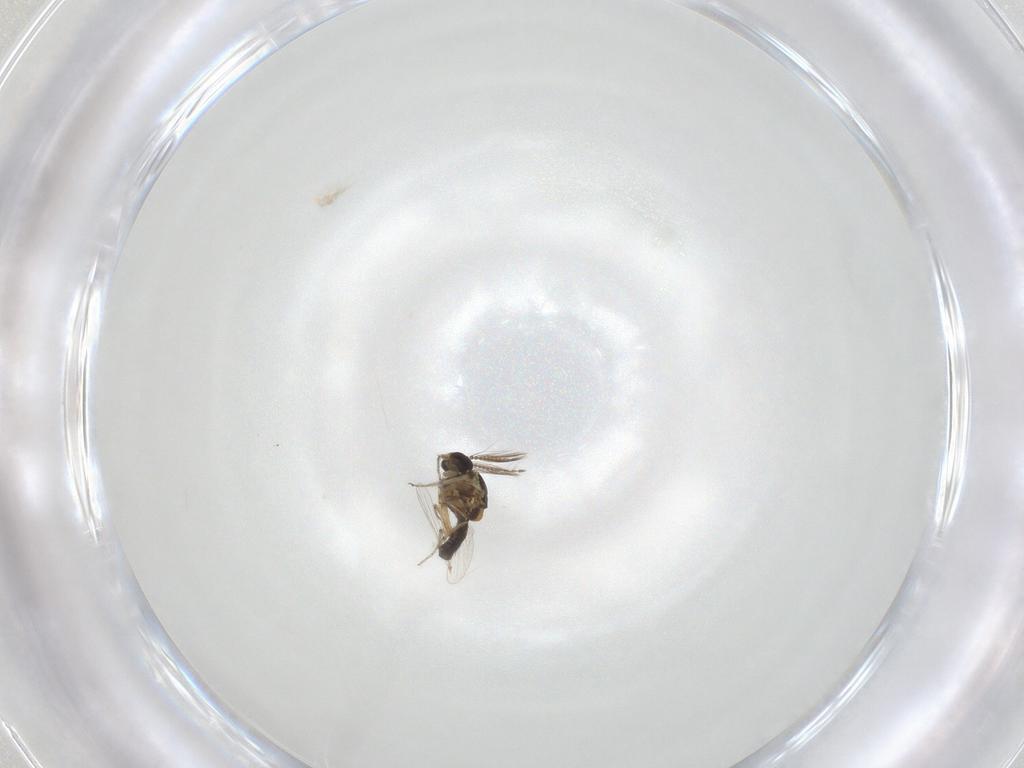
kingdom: Animalia
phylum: Arthropoda
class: Insecta
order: Diptera
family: Ceratopogonidae
